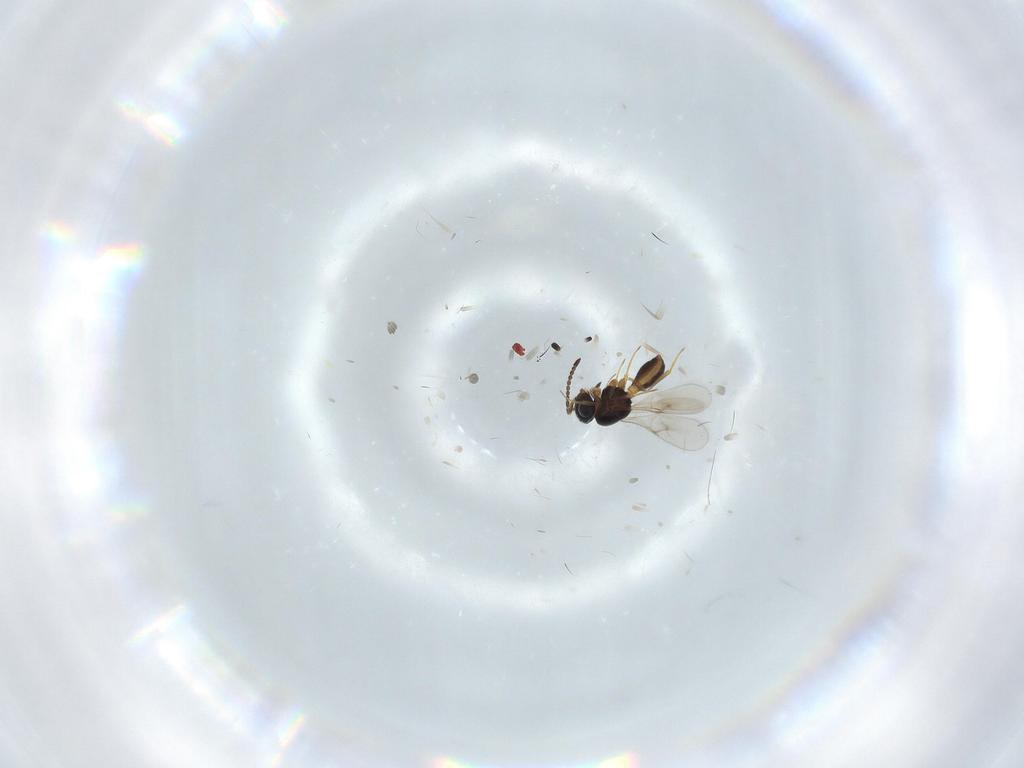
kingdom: Animalia
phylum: Arthropoda
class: Insecta
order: Hymenoptera
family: Scelionidae
